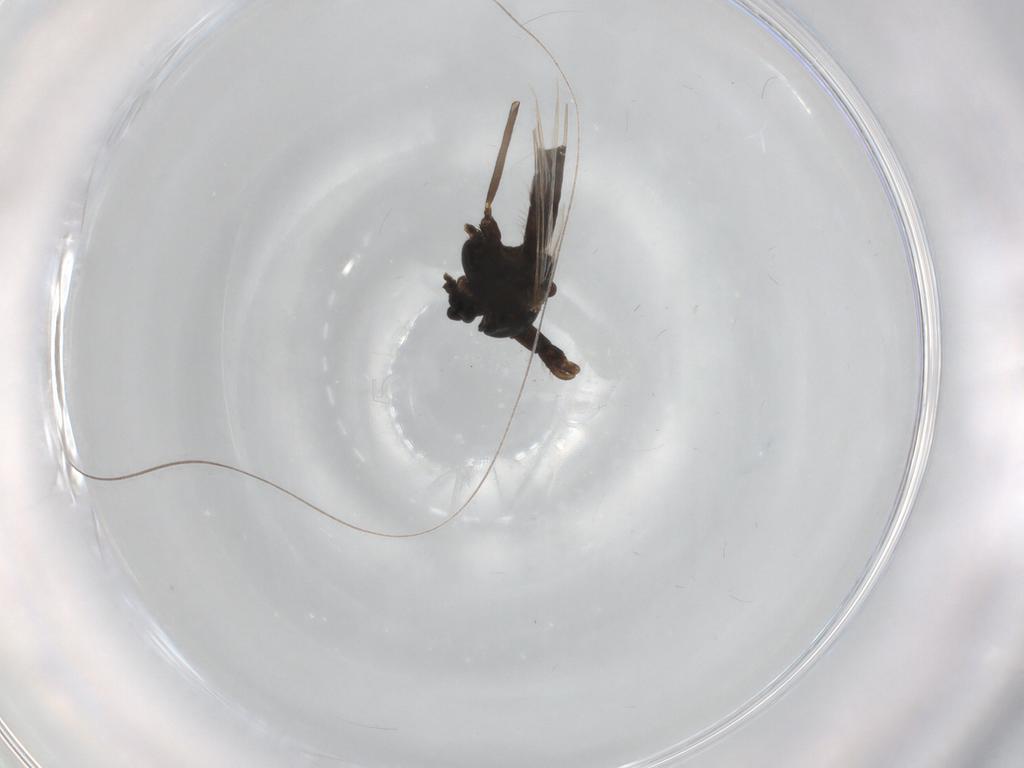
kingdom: Animalia
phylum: Arthropoda
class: Insecta
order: Diptera
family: Chironomidae
